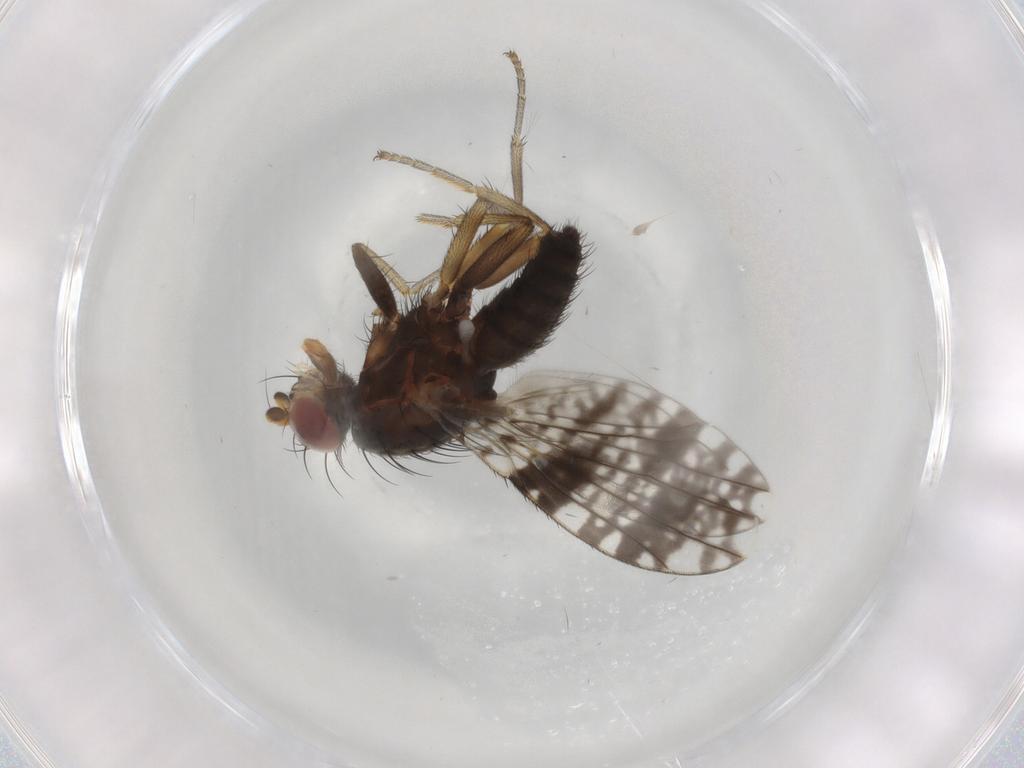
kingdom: Animalia
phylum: Arthropoda
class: Insecta
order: Diptera
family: Tephritidae
